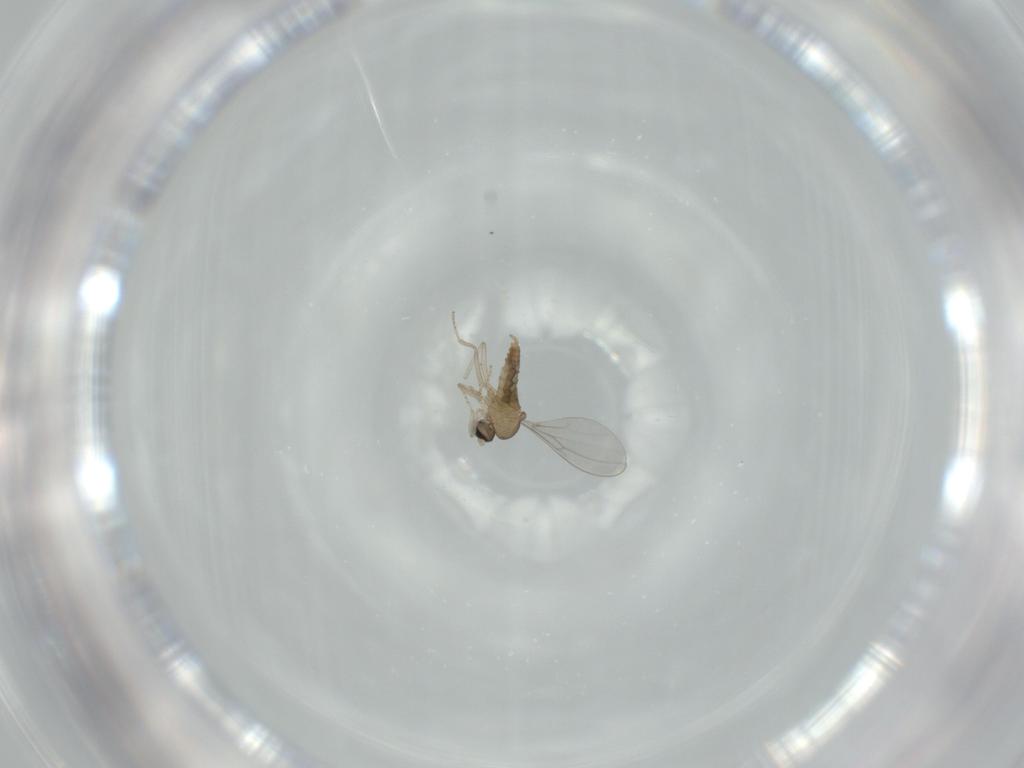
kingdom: Animalia
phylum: Arthropoda
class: Insecta
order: Diptera
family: Cecidomyiidae
